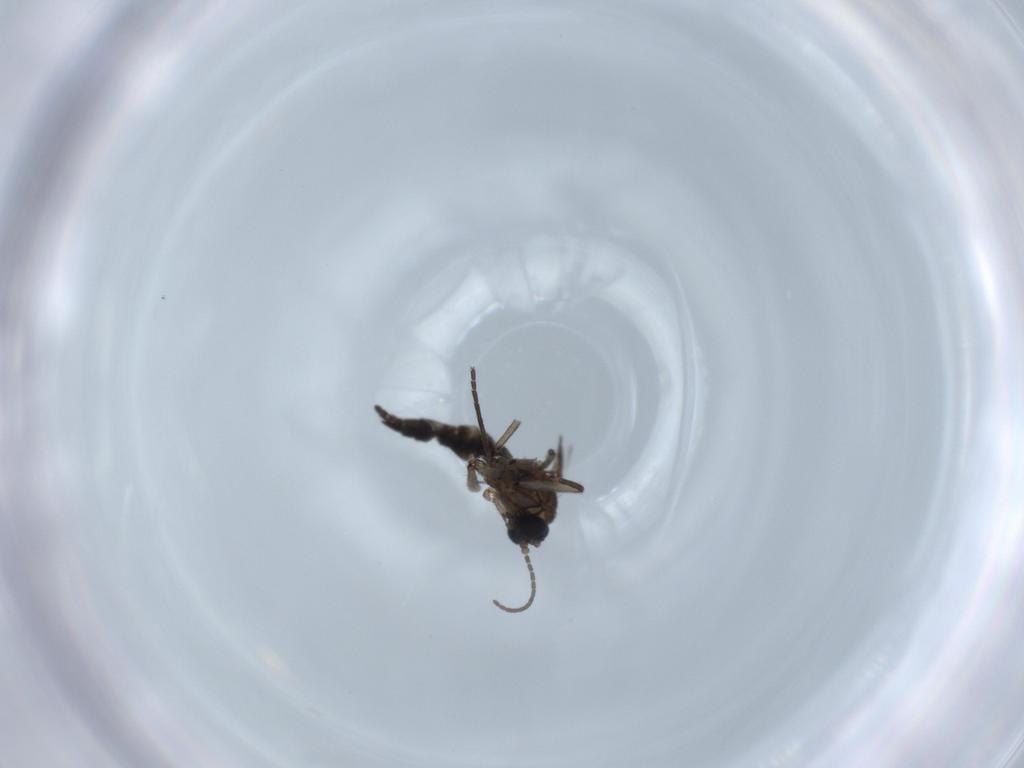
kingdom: Animalia
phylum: Arthropoda
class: Insecta
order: Diptera
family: Sciaridae
